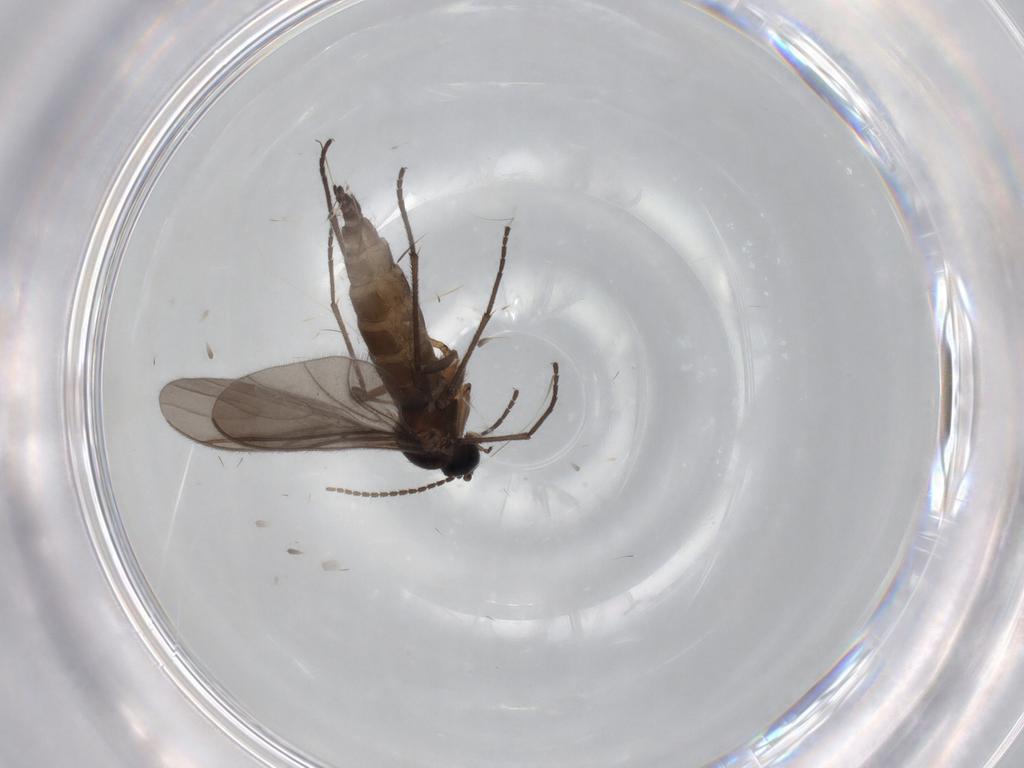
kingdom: Animalia
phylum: Arthropoda
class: Insecta
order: Diptera
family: Sciaridae
